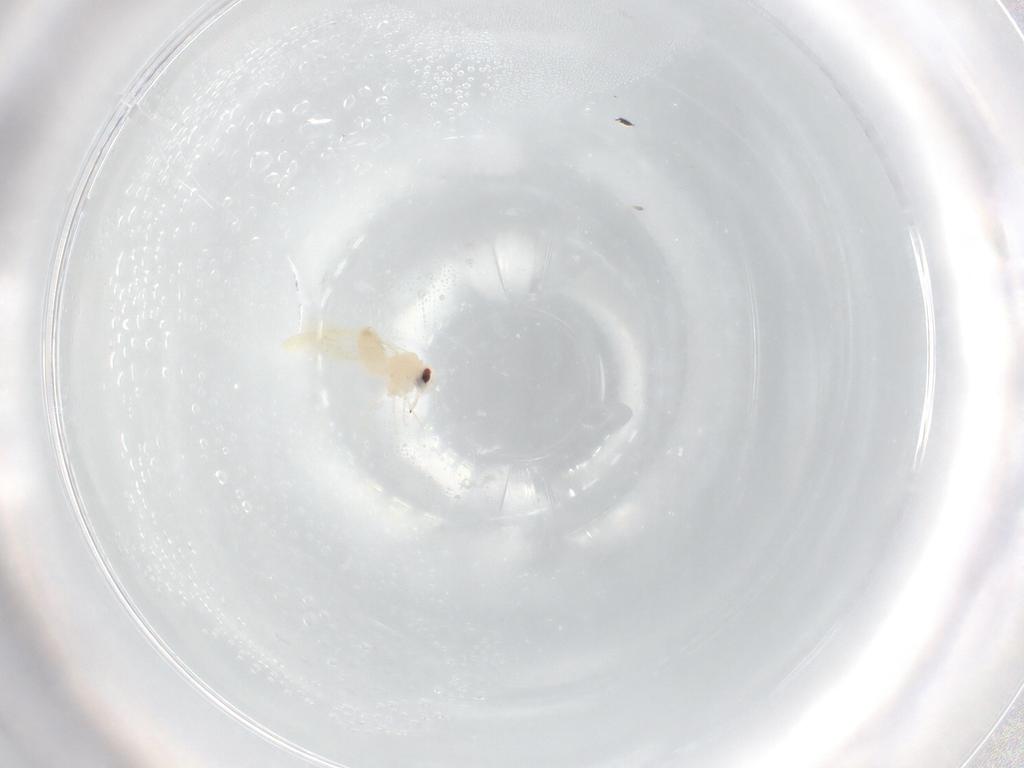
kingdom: Animalia
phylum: Arthropoda
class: Insecta
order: Hemiptera
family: Aleyrodidae
